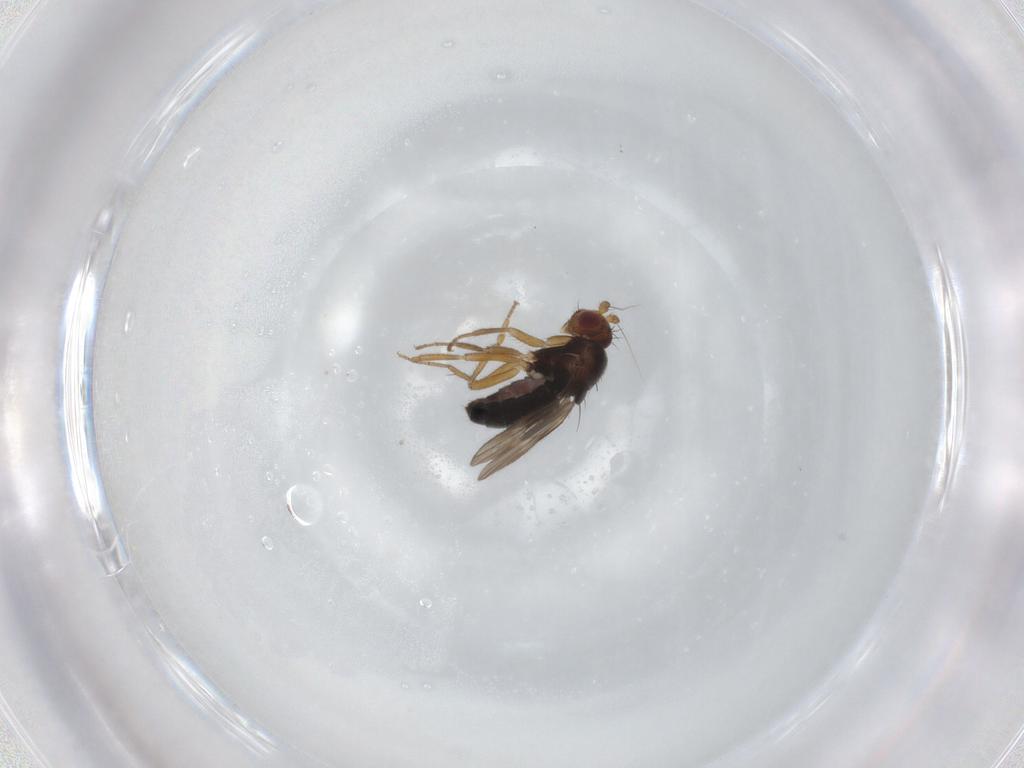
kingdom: Animalia
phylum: Arthropoda
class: Insecta
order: Diptera
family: Sphaeroceridae
